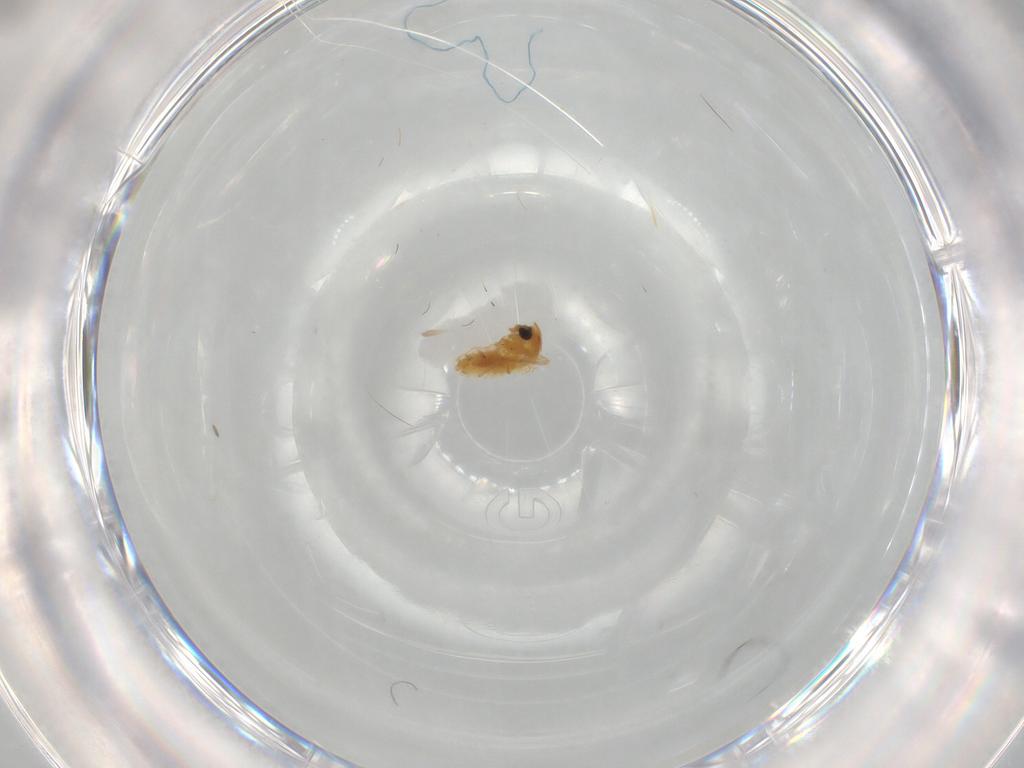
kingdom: Animalia
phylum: Arthropoda
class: Insecta
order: Diptera
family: Chironomidae
